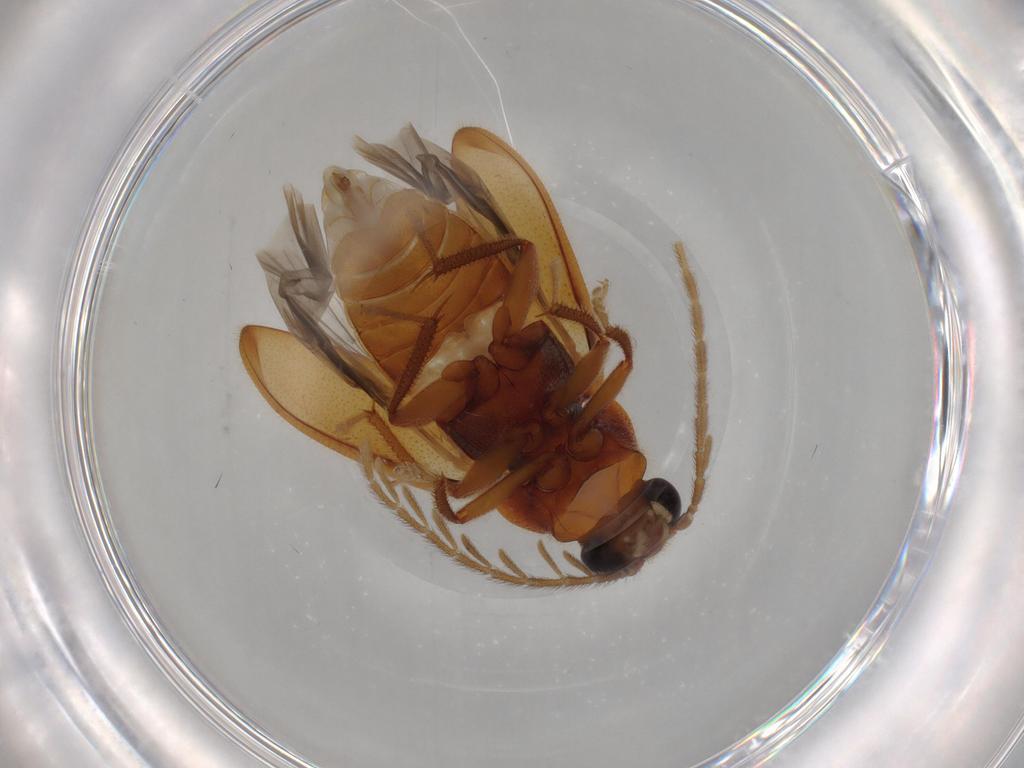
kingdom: Animalia
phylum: Arthropoda
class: Insecta
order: Coleoptera
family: Ptilodactylidae
